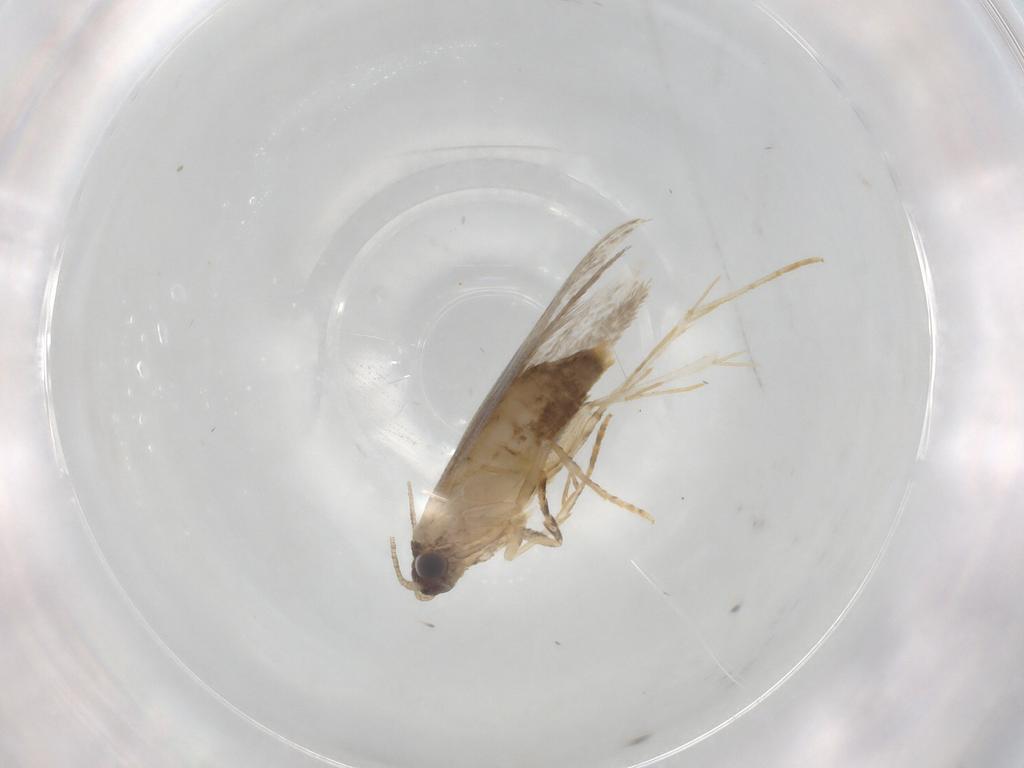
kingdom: Animalia
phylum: Arthropoda
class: Insecta
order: Lepidoptera
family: Tineidae
